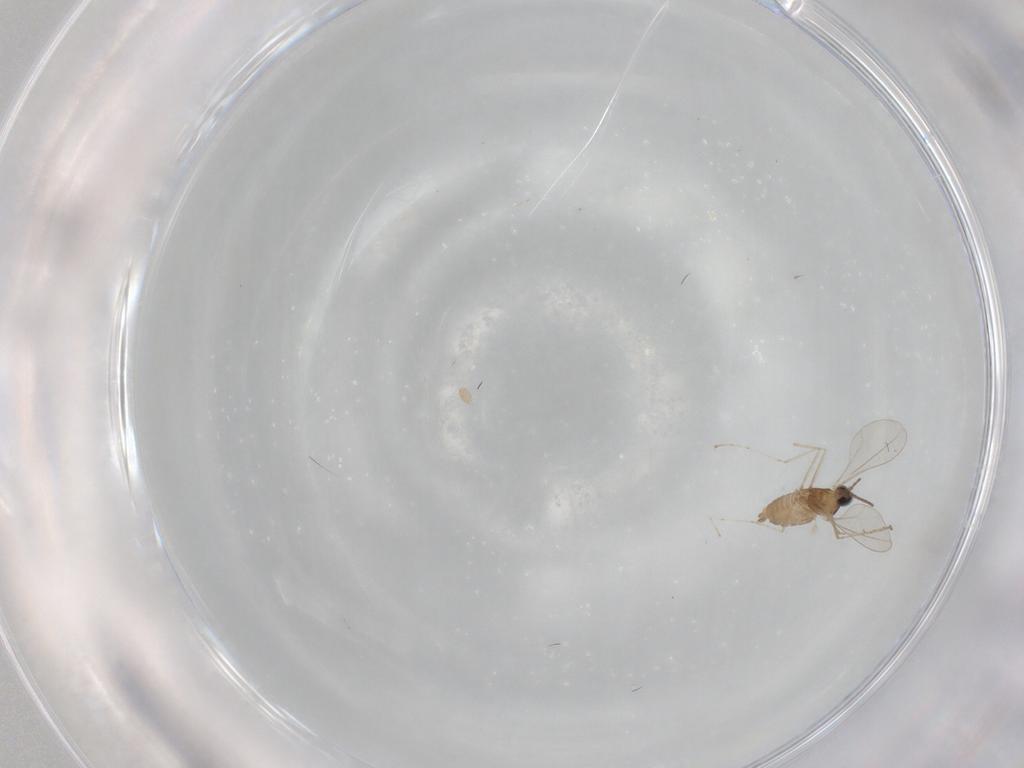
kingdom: Animalia
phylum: Arthropoda
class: Insecta
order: Diptera
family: Cecidomyiidae
